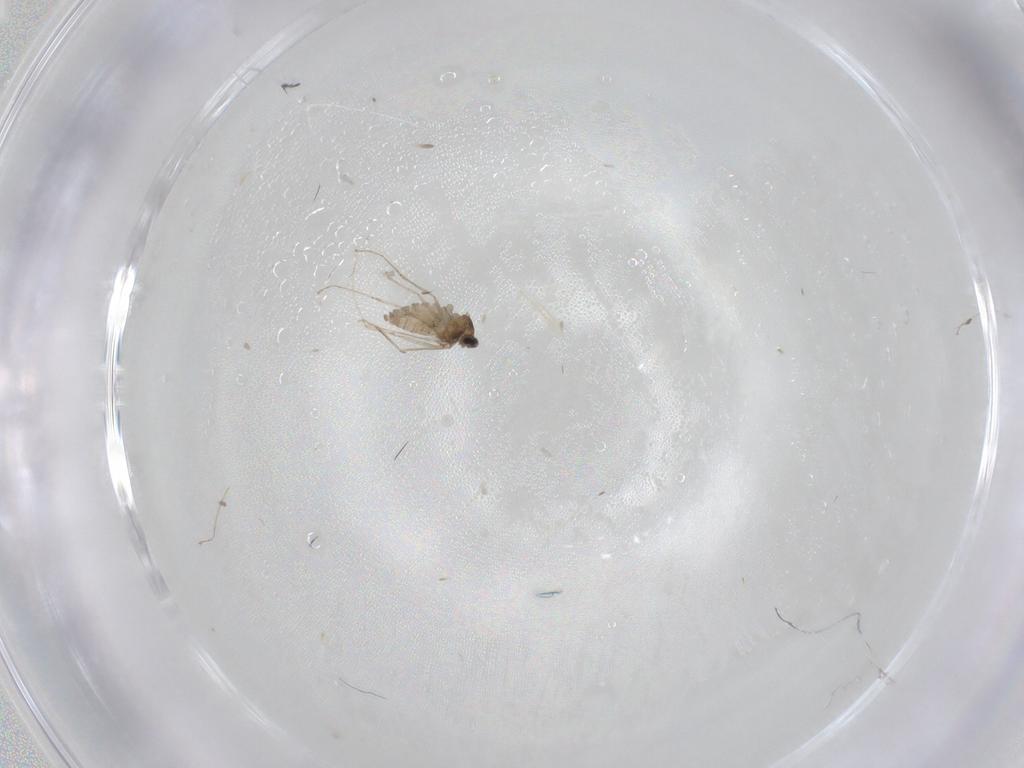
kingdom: Animalia
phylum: Arthropoda
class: Insecta
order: Diptera
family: Cecidomyiidae
